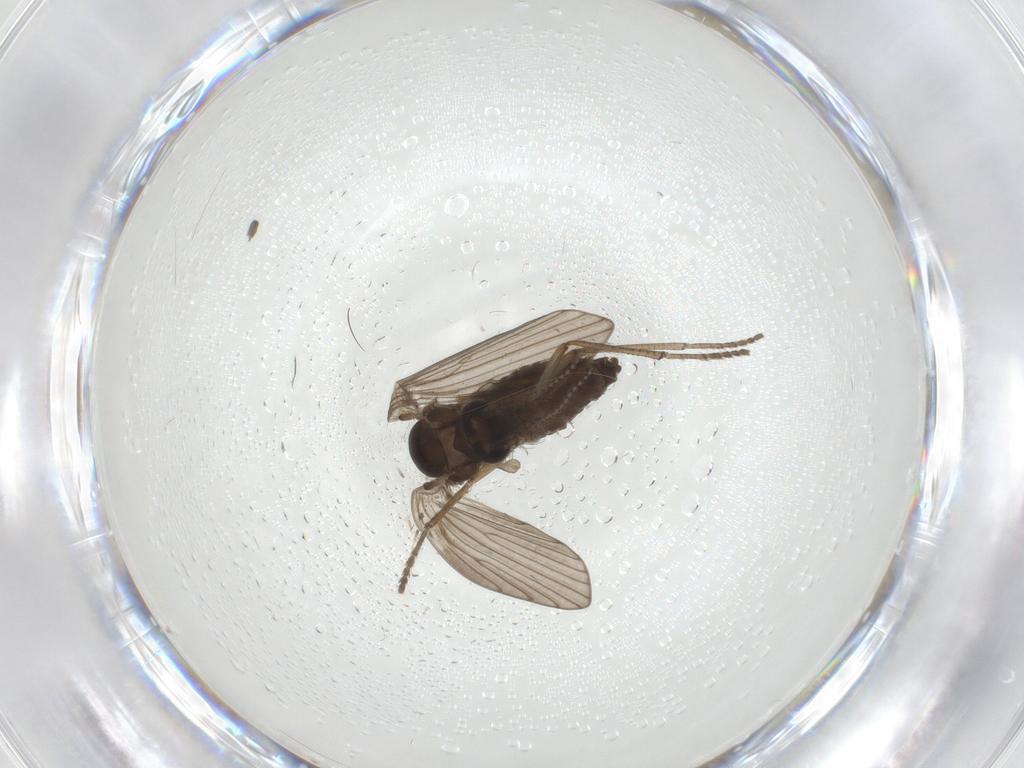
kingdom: Animalia
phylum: Arthropoda
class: Insecta
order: Diptera
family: Psychodidae
